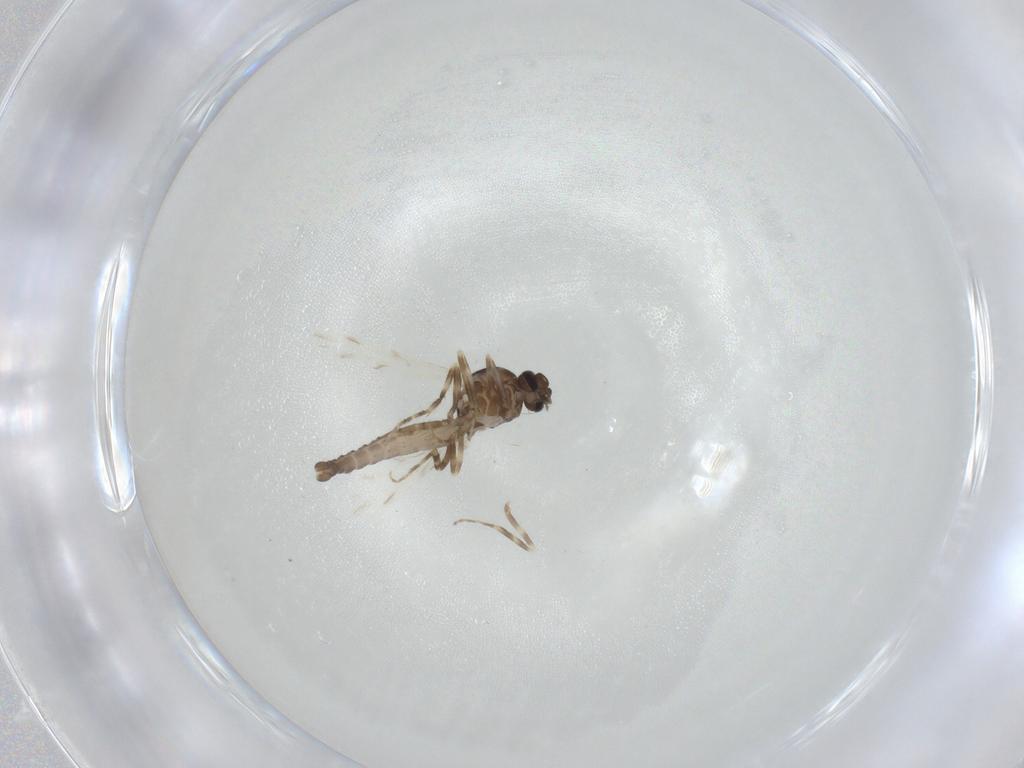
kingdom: Animalia
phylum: Arthropoda
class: Insecta
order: Diptera
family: Ceratopogonidae
